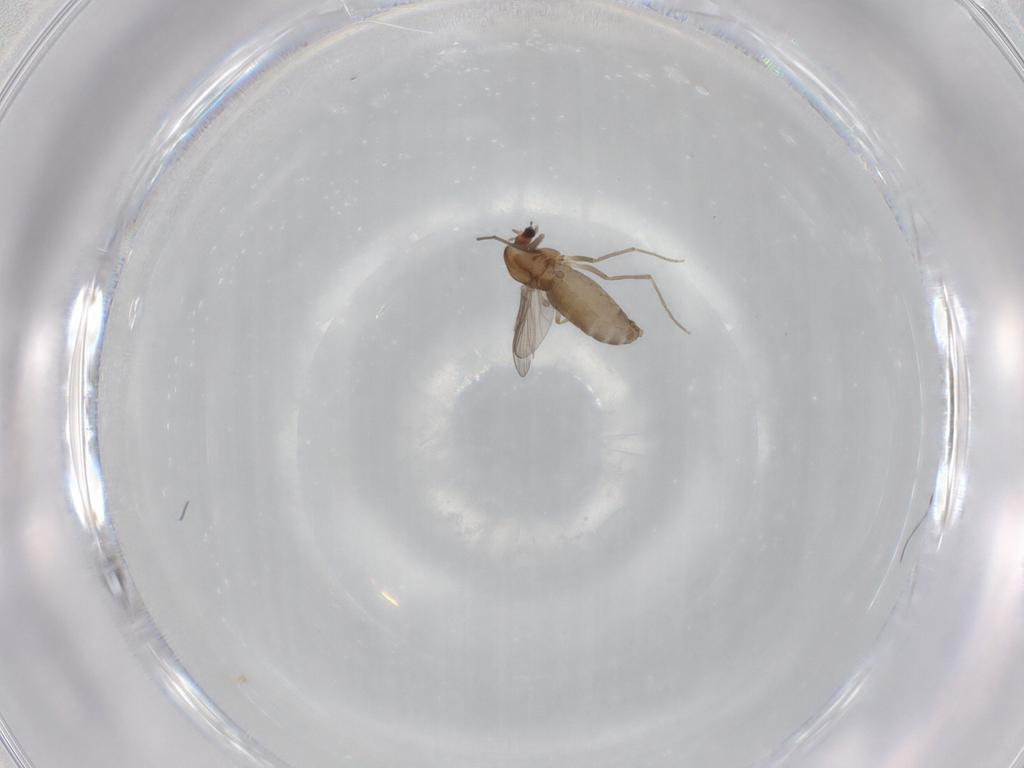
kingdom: Animalia
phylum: Arthropoda
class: Insecta
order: Diptera
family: Chironomidae
